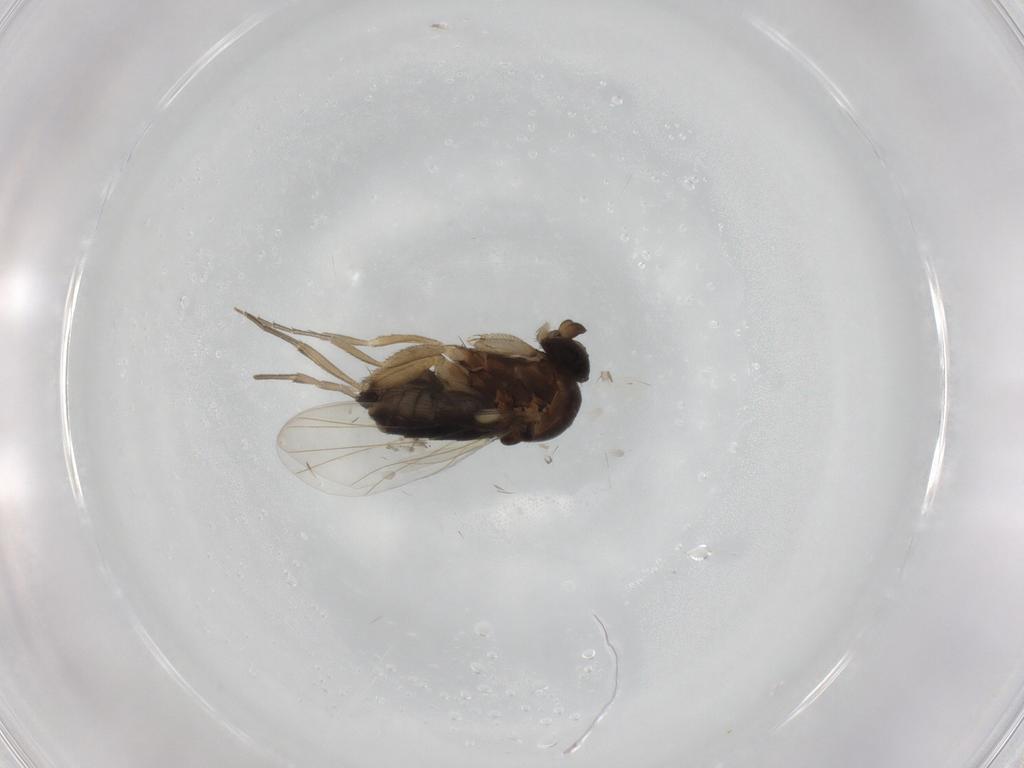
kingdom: Animalia
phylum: Arthropoda
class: Insecta
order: Diptera
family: Phoridae
